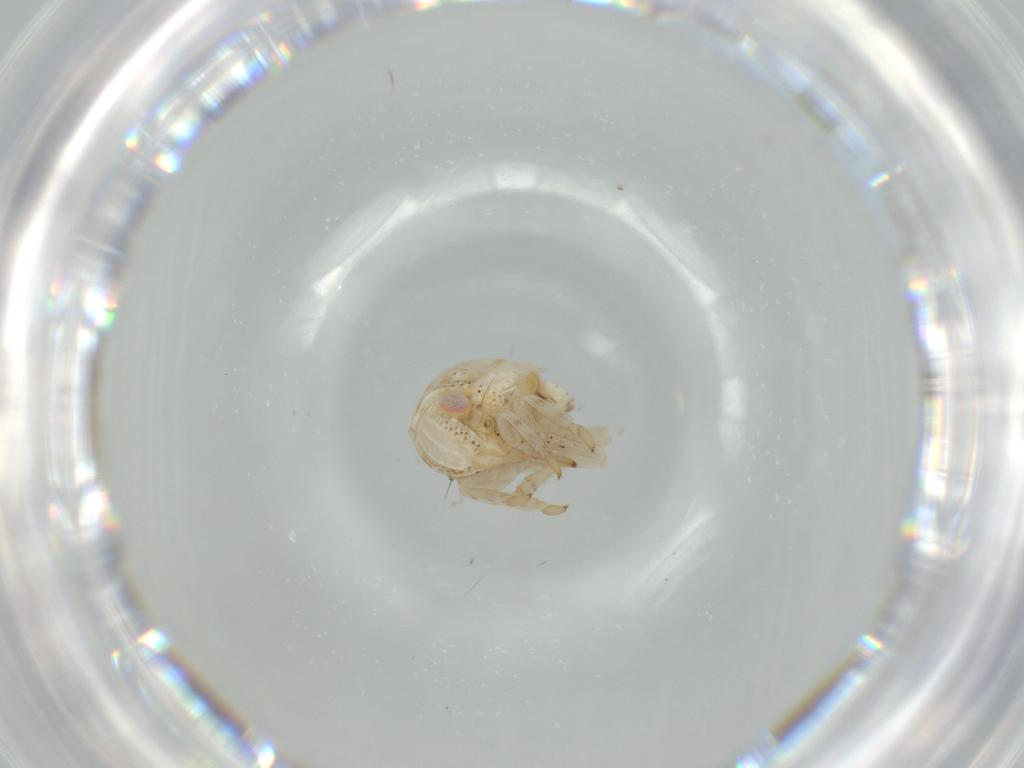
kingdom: Animalia
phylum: Arthropoda
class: Insecta
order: Hemiptera
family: Acanaloniidae
